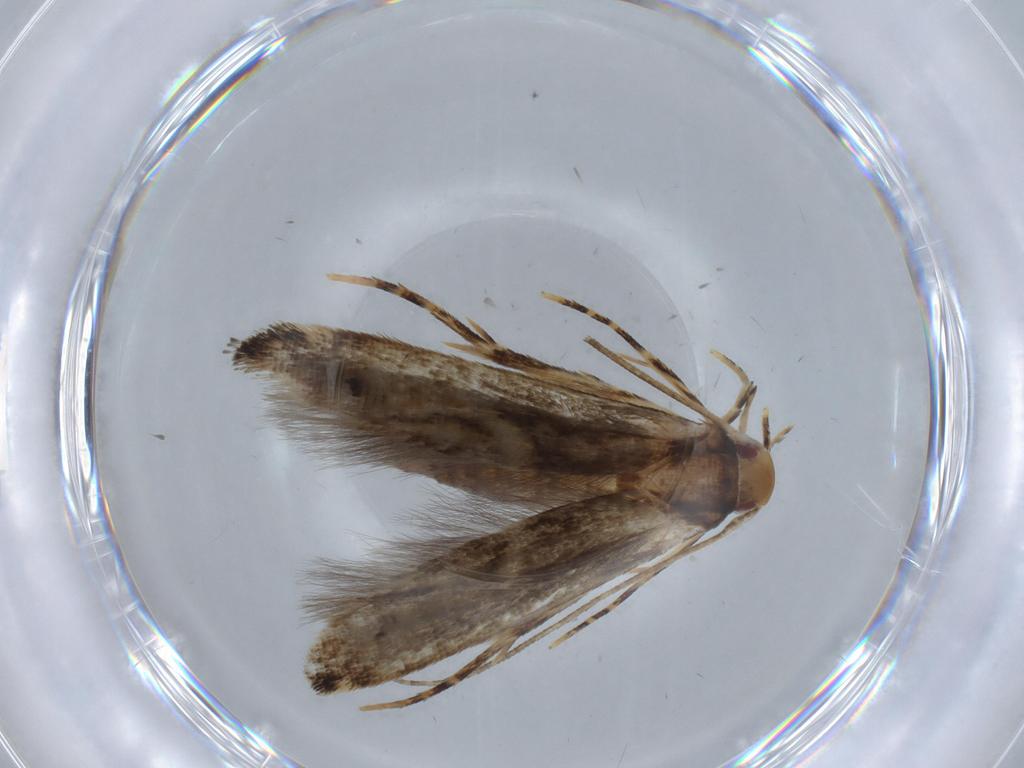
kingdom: Animalia
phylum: Arthropoda
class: Insecta
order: Lepidoptera
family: Momphidae
